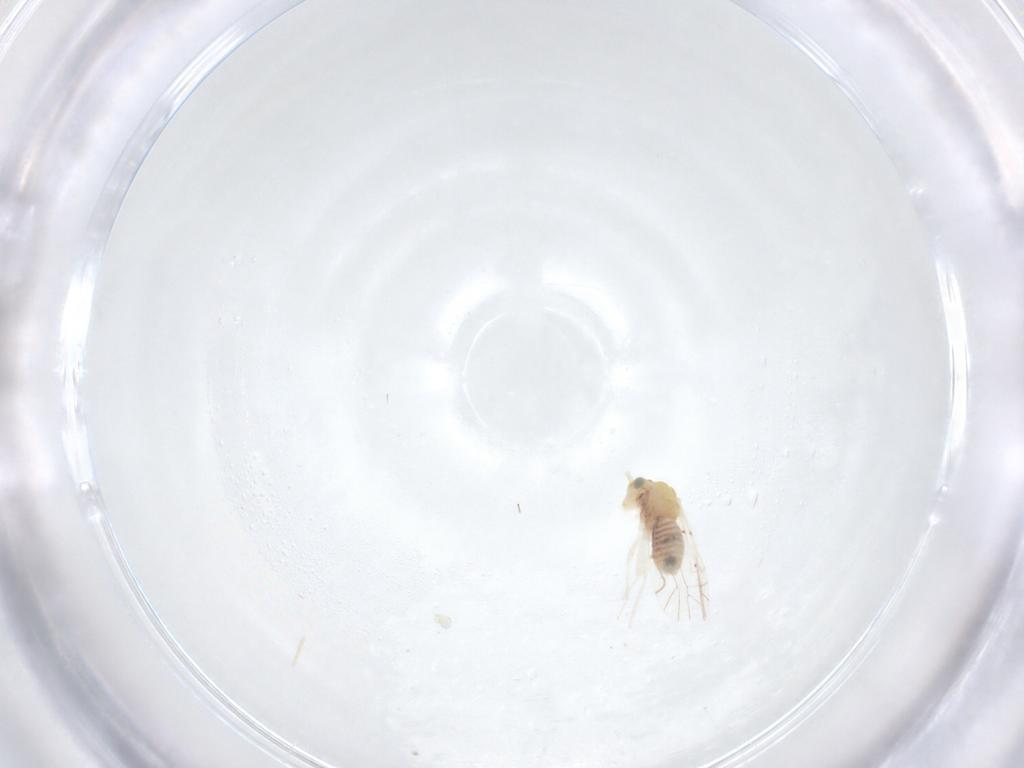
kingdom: Animalia
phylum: Arthropoda
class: Insecta
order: Psocodea
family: Lachesillidae
